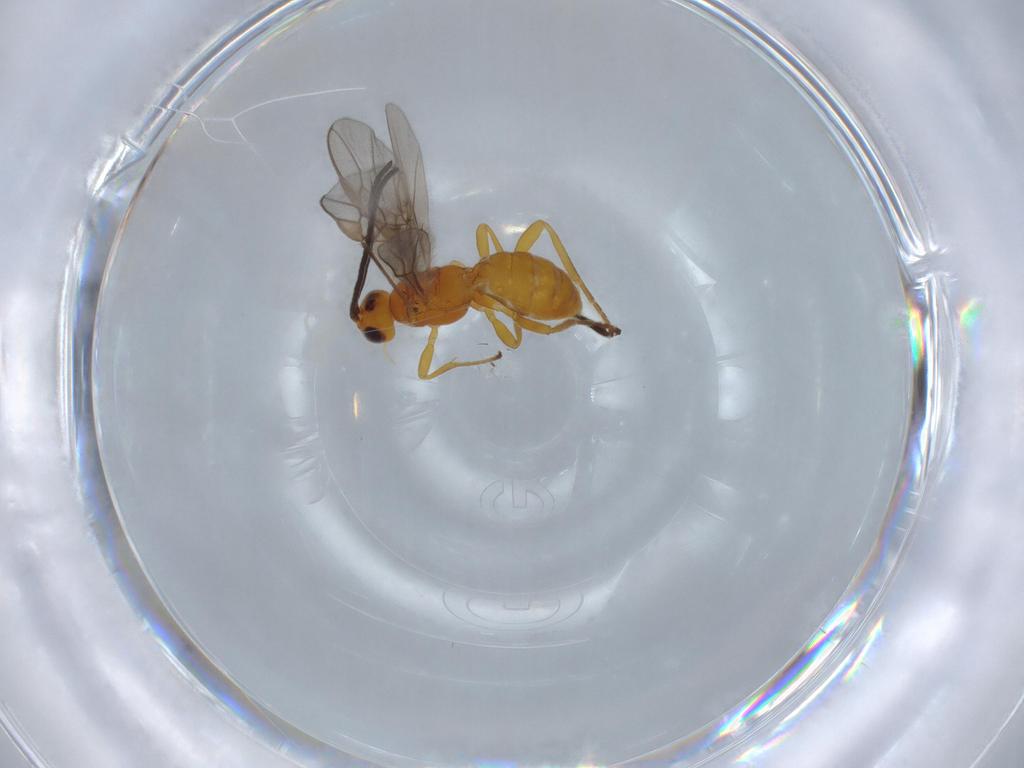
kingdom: Animalia
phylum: Arthropoda
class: Insecta
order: Hymenoptera
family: Braconidae
